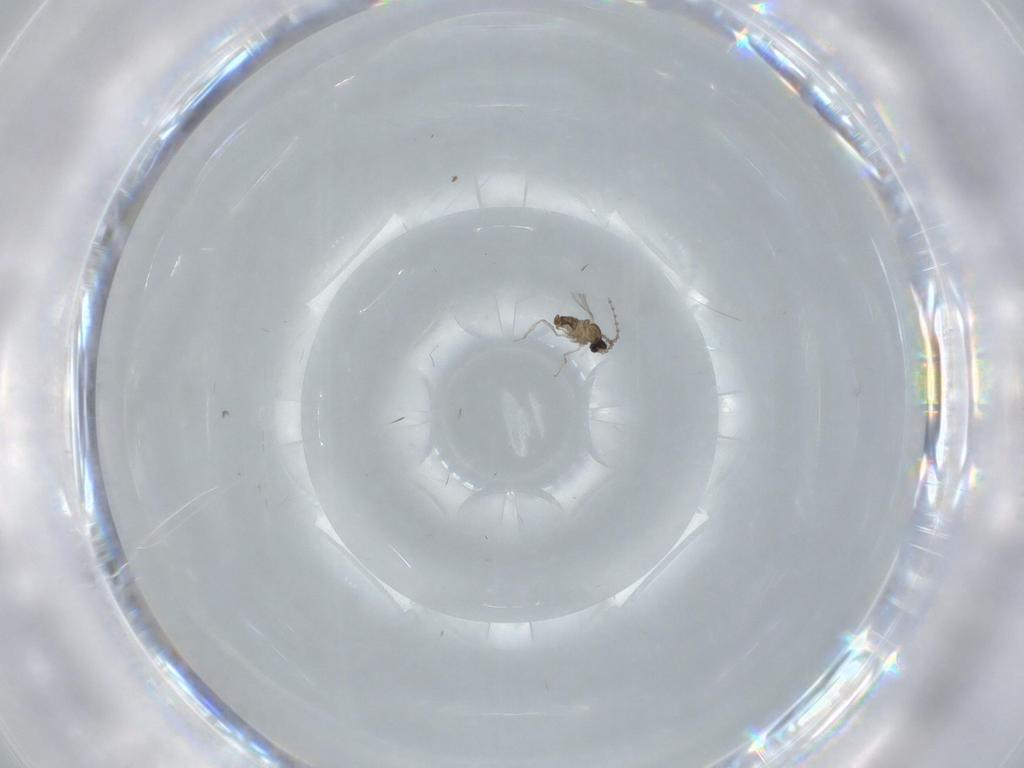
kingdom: Animalia
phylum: Arthropoda
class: Insecta
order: Diptera
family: Cecidomyiidae
